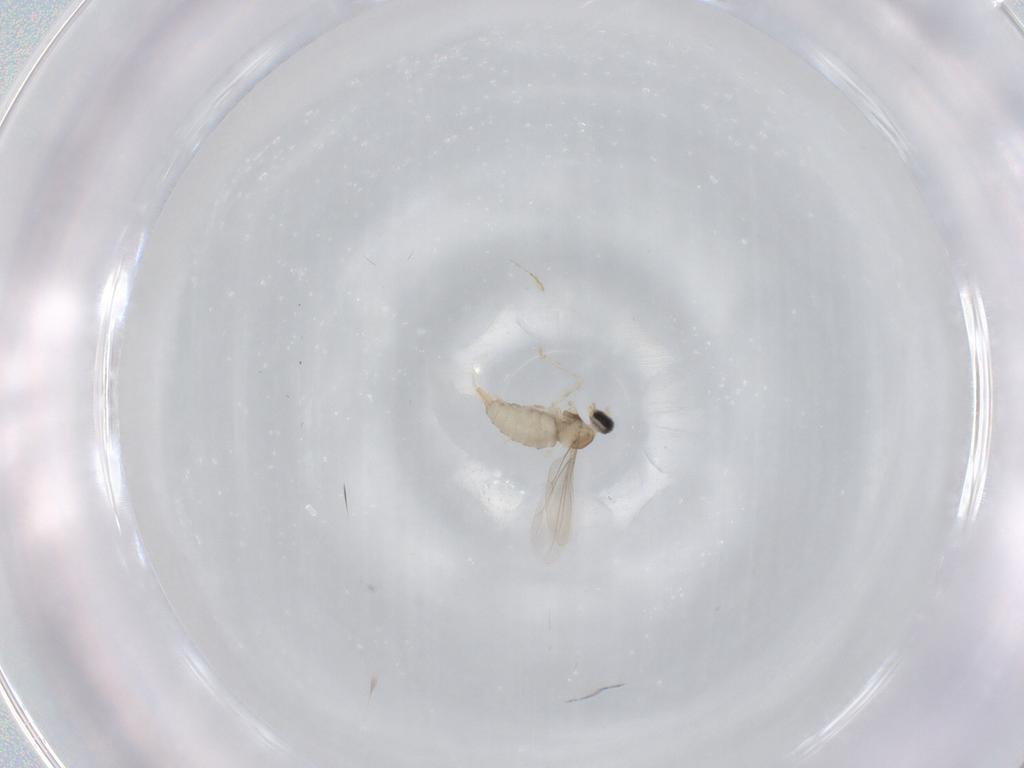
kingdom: Animalia
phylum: Arthropoda
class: Insecta
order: Diptera
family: Cecidomyiidae
